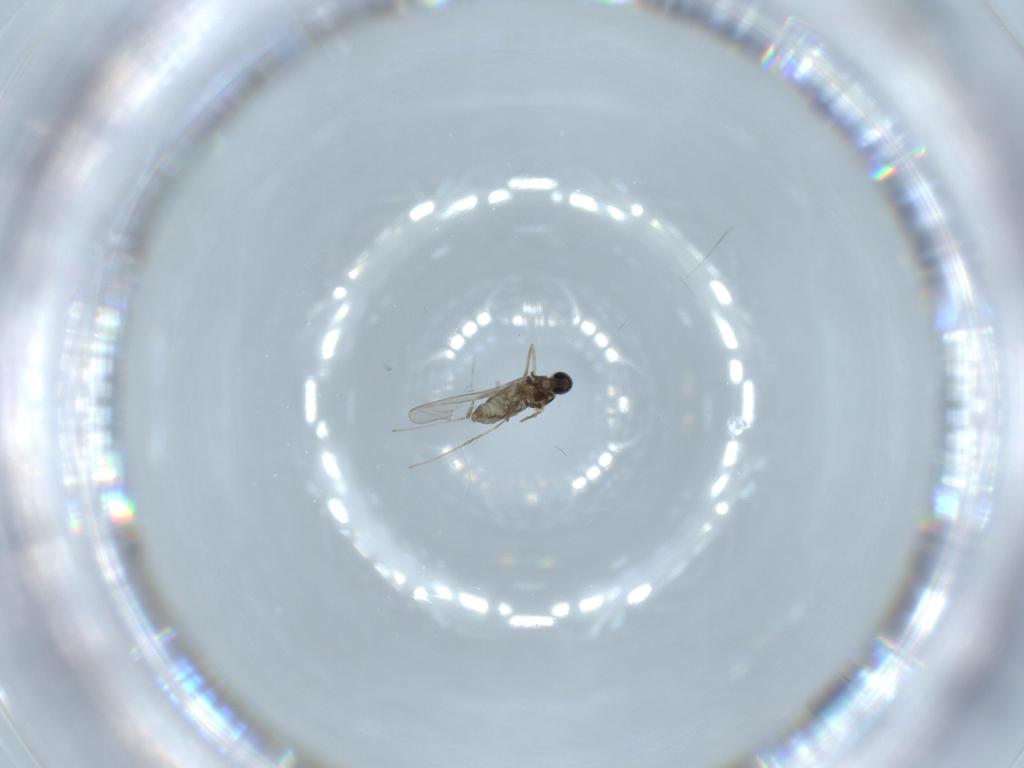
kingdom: Animalia
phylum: Arthropoda
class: Insecta
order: Diptera
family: Cecidomyiidae
